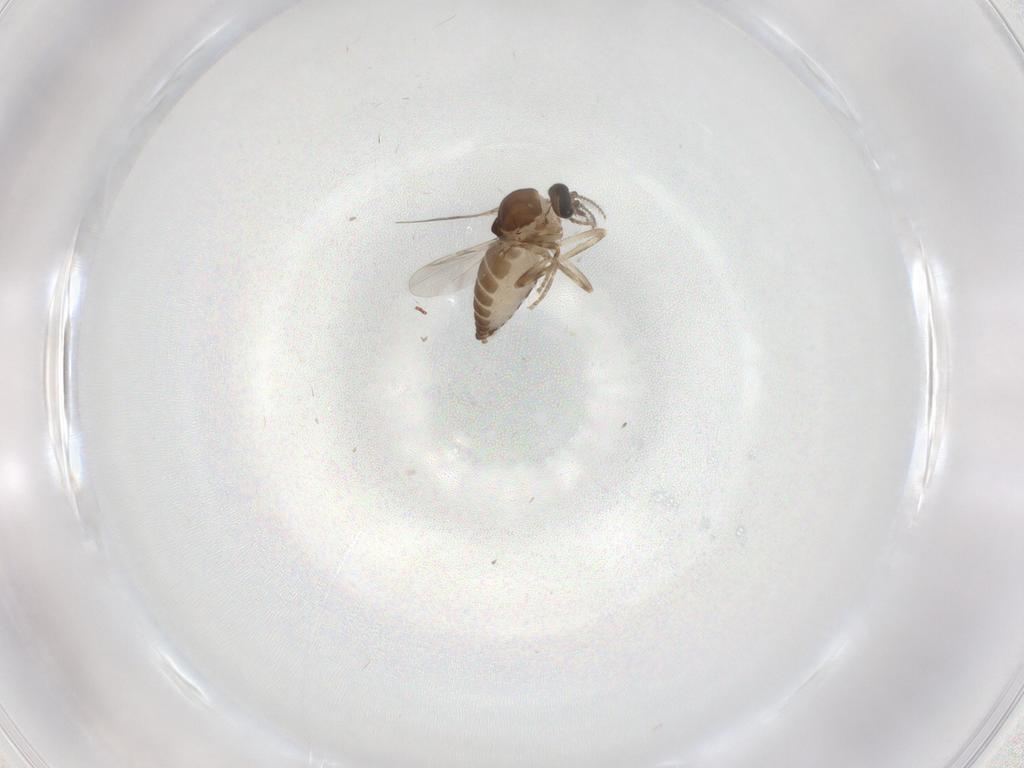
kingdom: Animalia
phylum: Arthropoda
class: Insecta
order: Diptera
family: Ceratopogonidae
